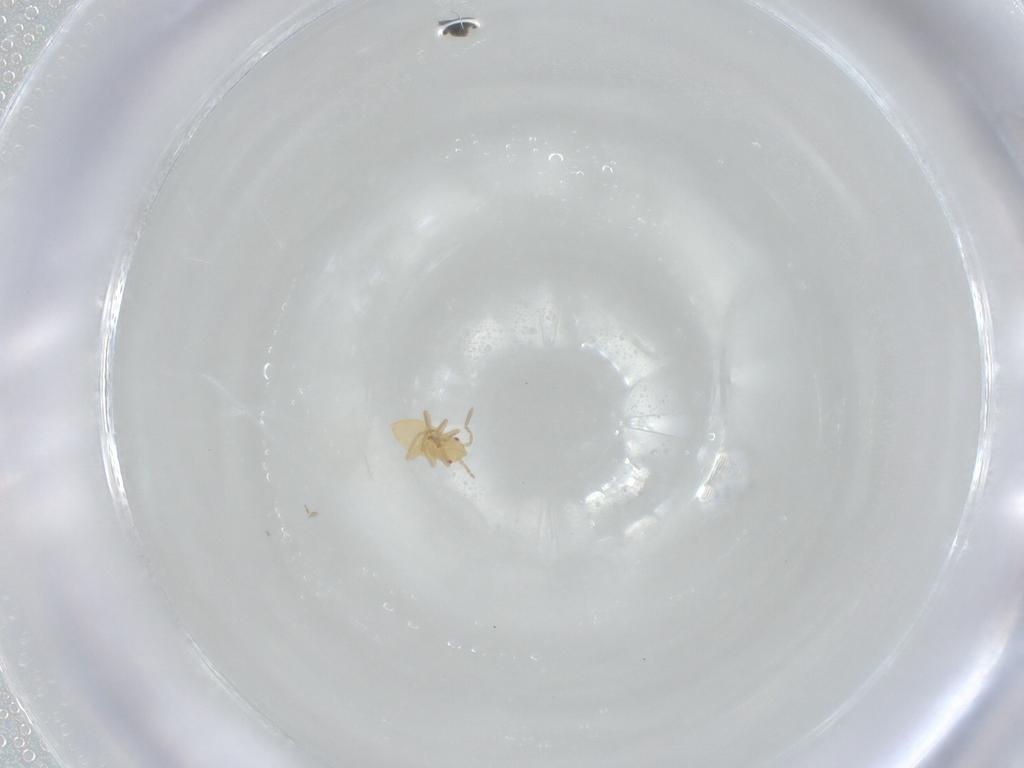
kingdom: Animalia
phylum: Arthropoda
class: Insecta
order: Hemiptera
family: Miridae
